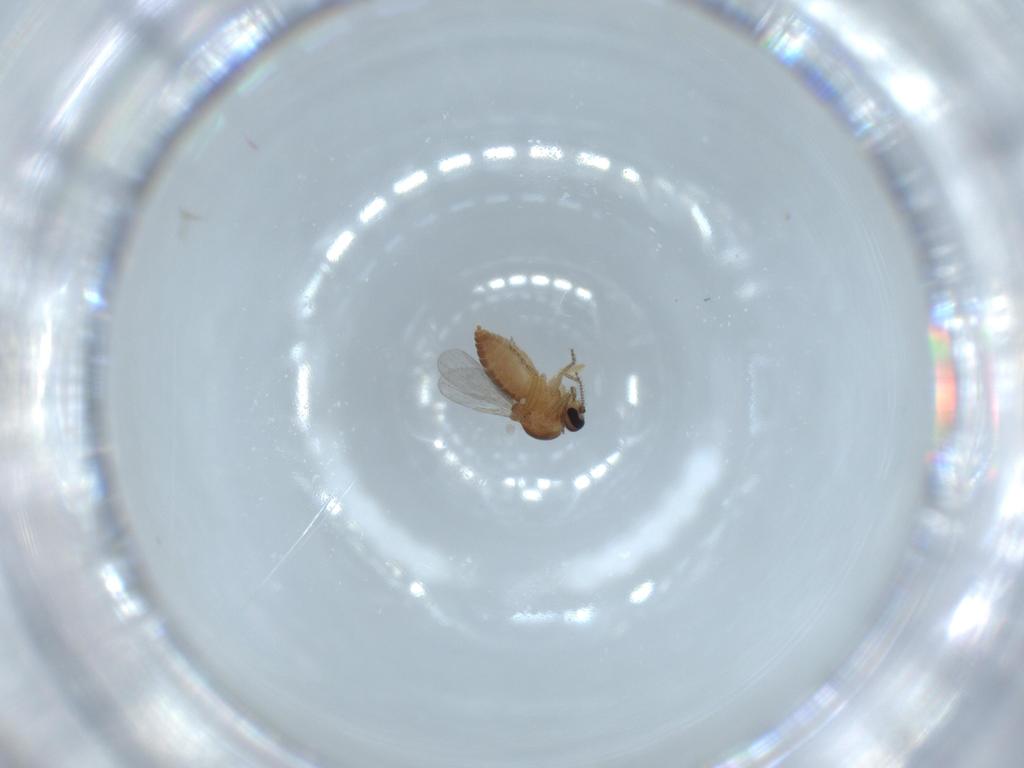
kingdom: Animalia
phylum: Arthropoda
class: Insecta
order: Diptera
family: Ceratopogonidae
